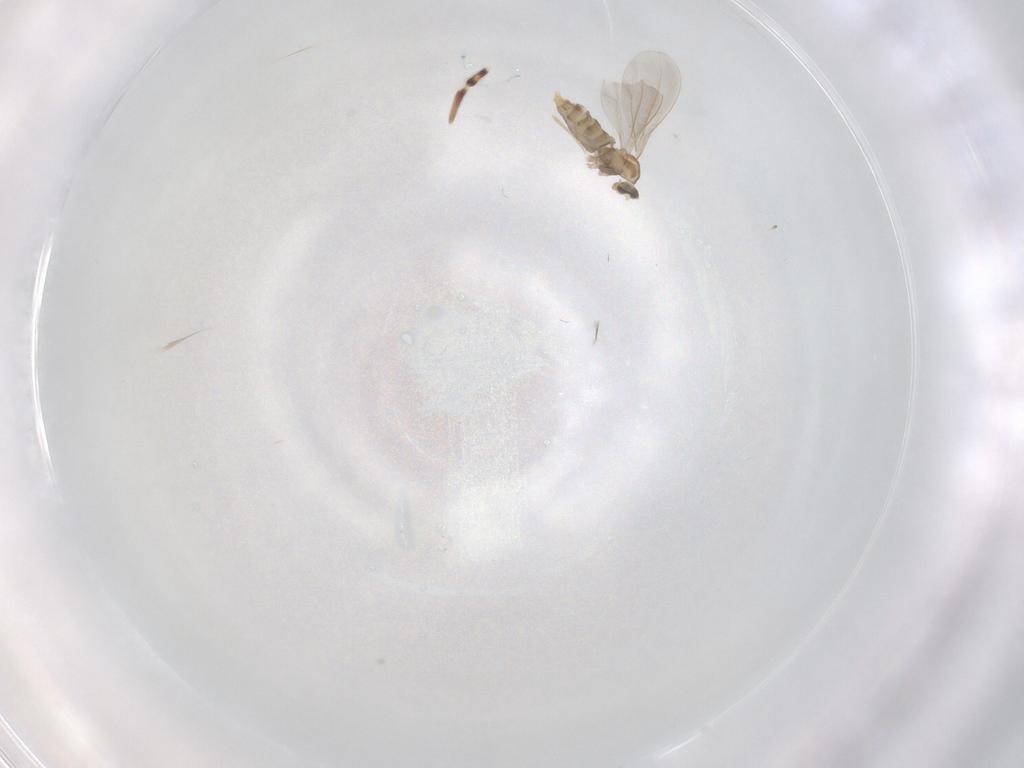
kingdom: Animalia
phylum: Arthropoda
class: Insecta
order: Diptera
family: Cecidomyiidae
